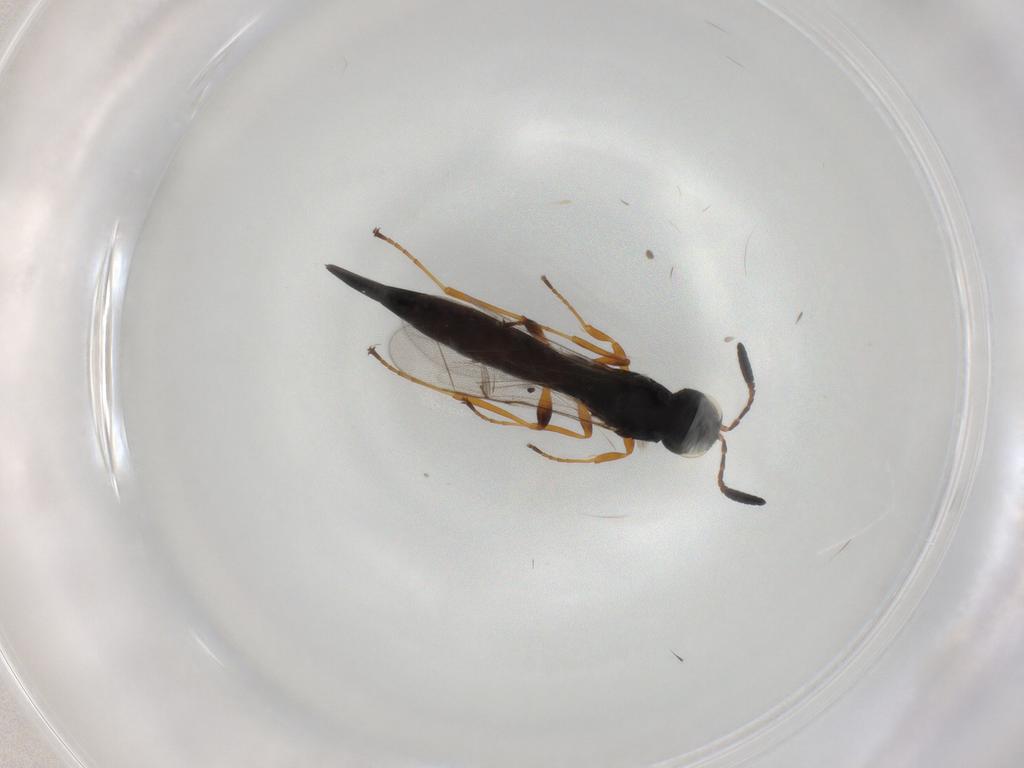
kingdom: Animalia
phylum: Arthropoda
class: Insecta
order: Hymenoptera
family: Scelionidae
